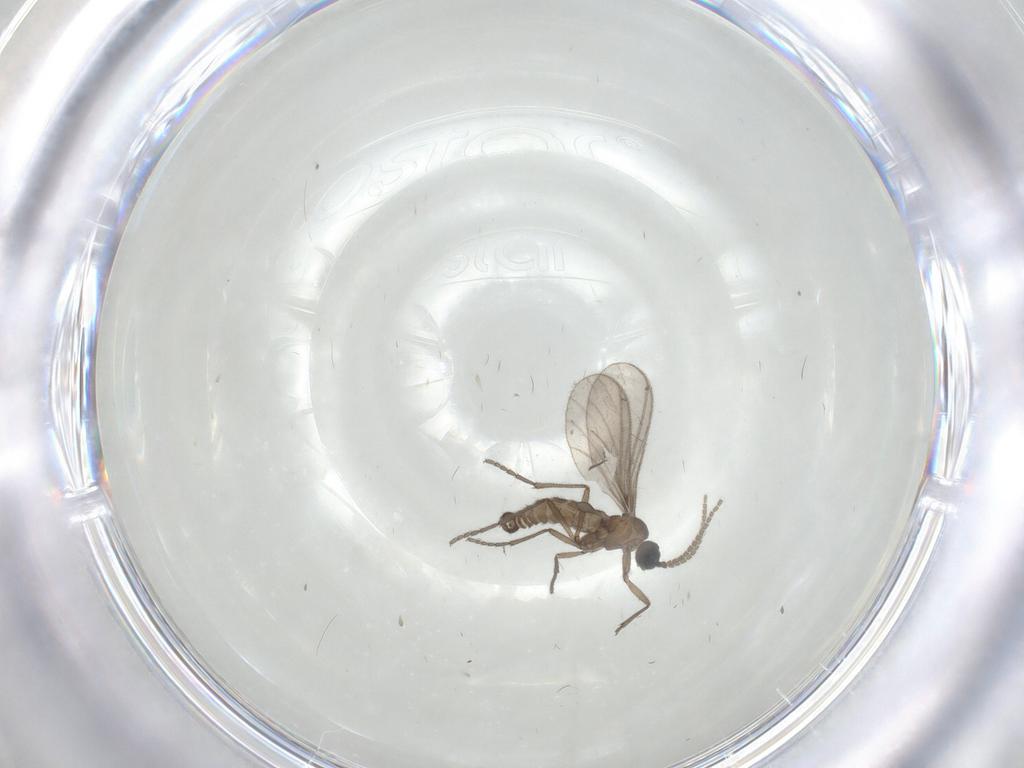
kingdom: Animalia
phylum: Arthropoda
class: Insecta
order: Diptera
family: Sciaridae
